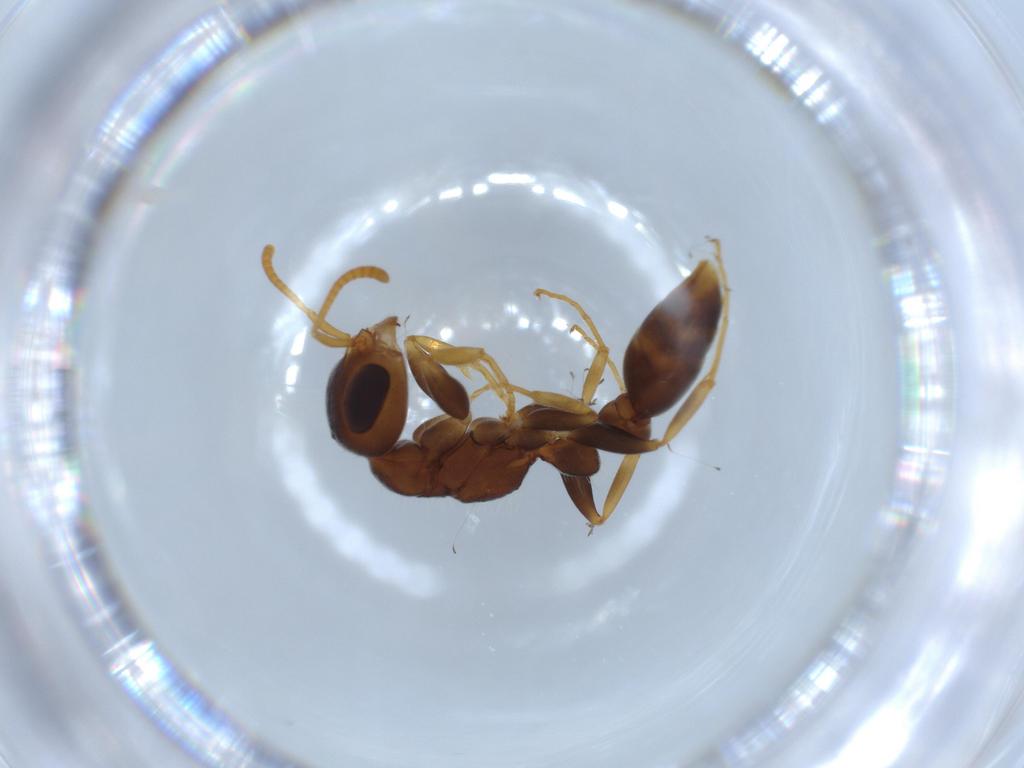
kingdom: Animalia
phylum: Arthropoda
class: Insecta
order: Hymenoptera
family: Formicidae
